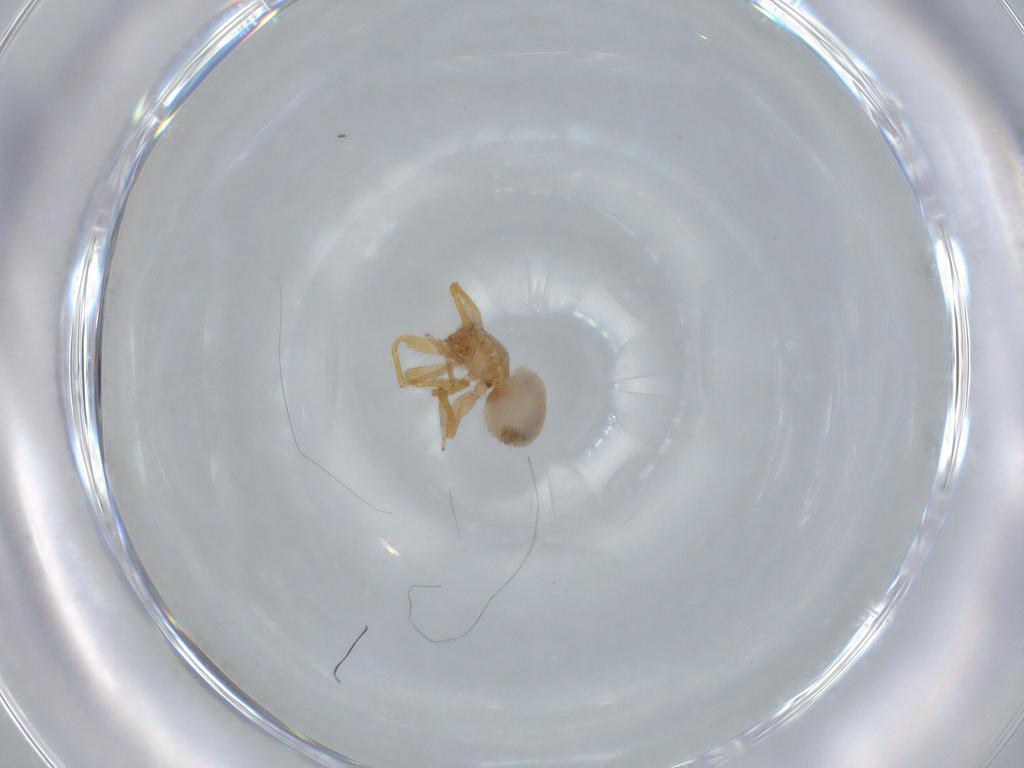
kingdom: Animalia
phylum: Arthropoda
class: Arachnida
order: Araneae
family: Oonopidae
